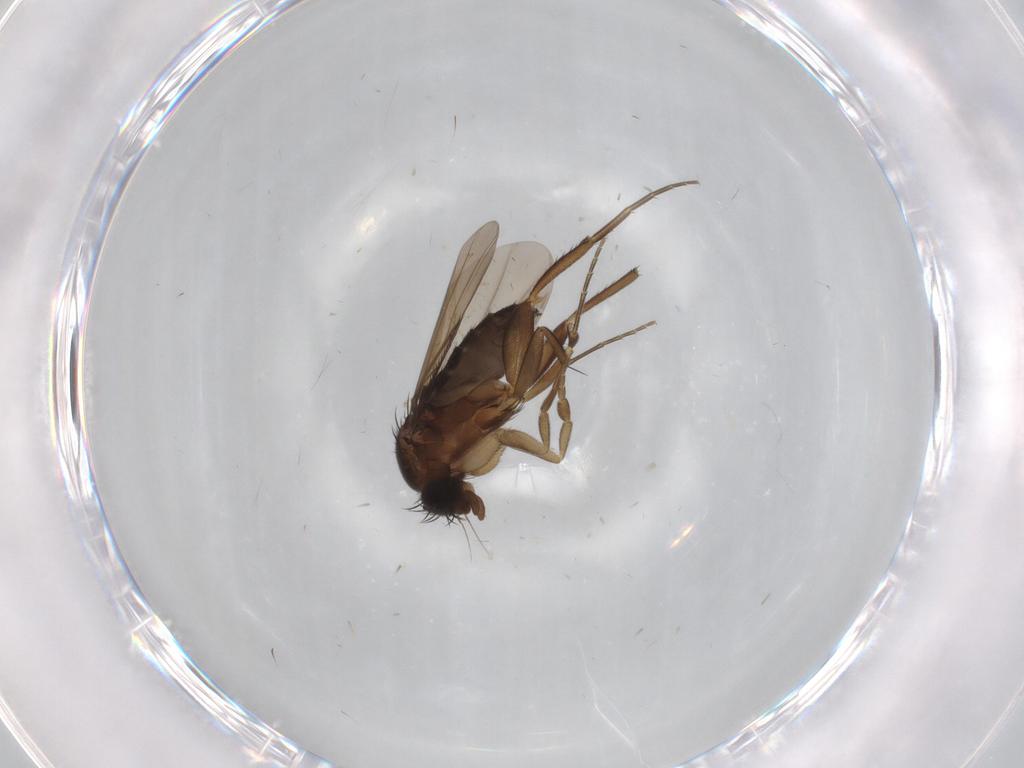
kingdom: Animalia
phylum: Arthropoda
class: Insecta
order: Diptera
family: Phoridae
